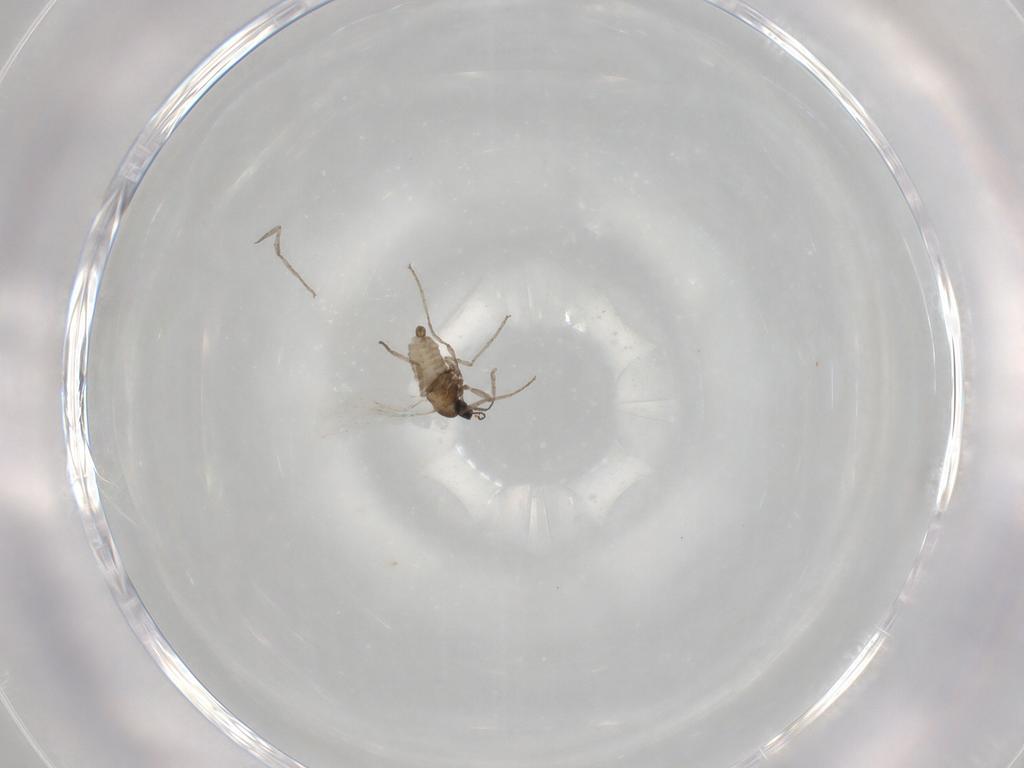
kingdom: Animalia
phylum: Arthropoda
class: Insecta
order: Diptera
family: Cecidomyiidae
